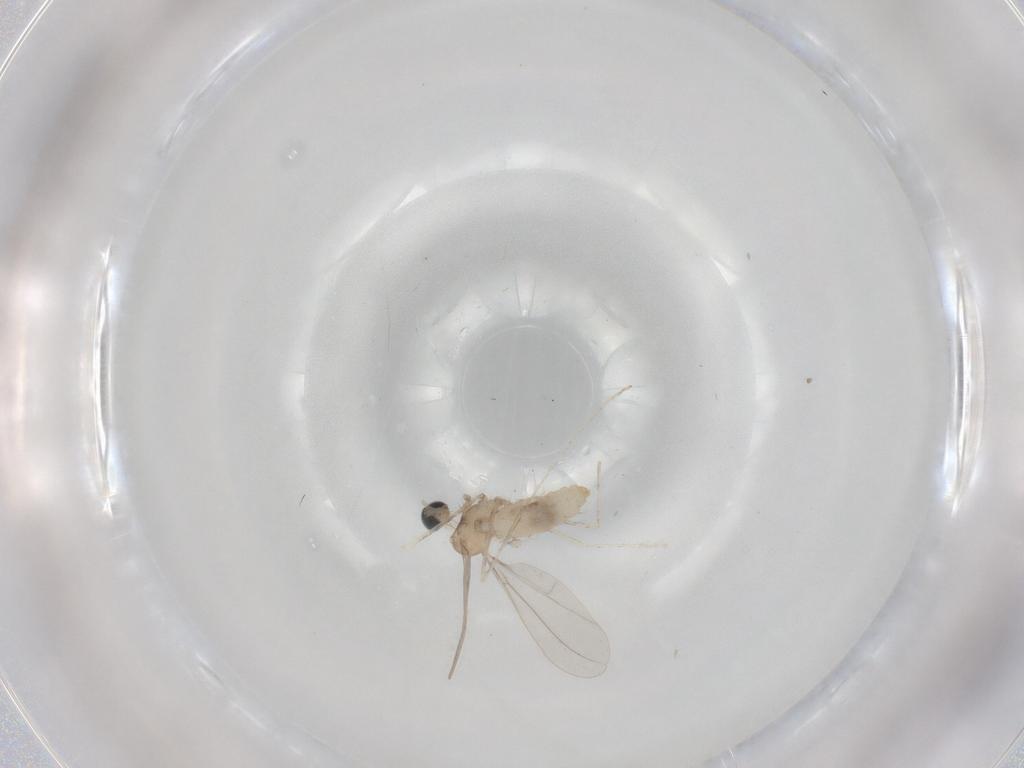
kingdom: Animalia
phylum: Arthropoda
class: Insecta
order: Diptera
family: Cecidomyiidae
